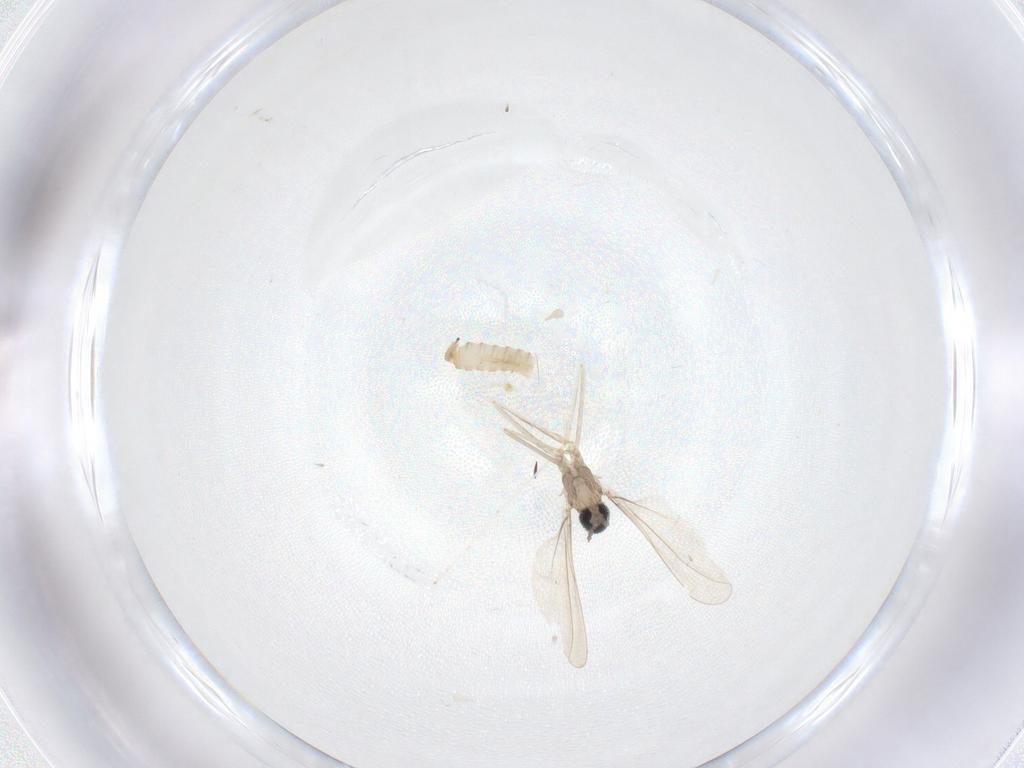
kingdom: Animalia
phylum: Arthropoda
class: Insecta
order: Diptera
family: Cecidomyiidae
